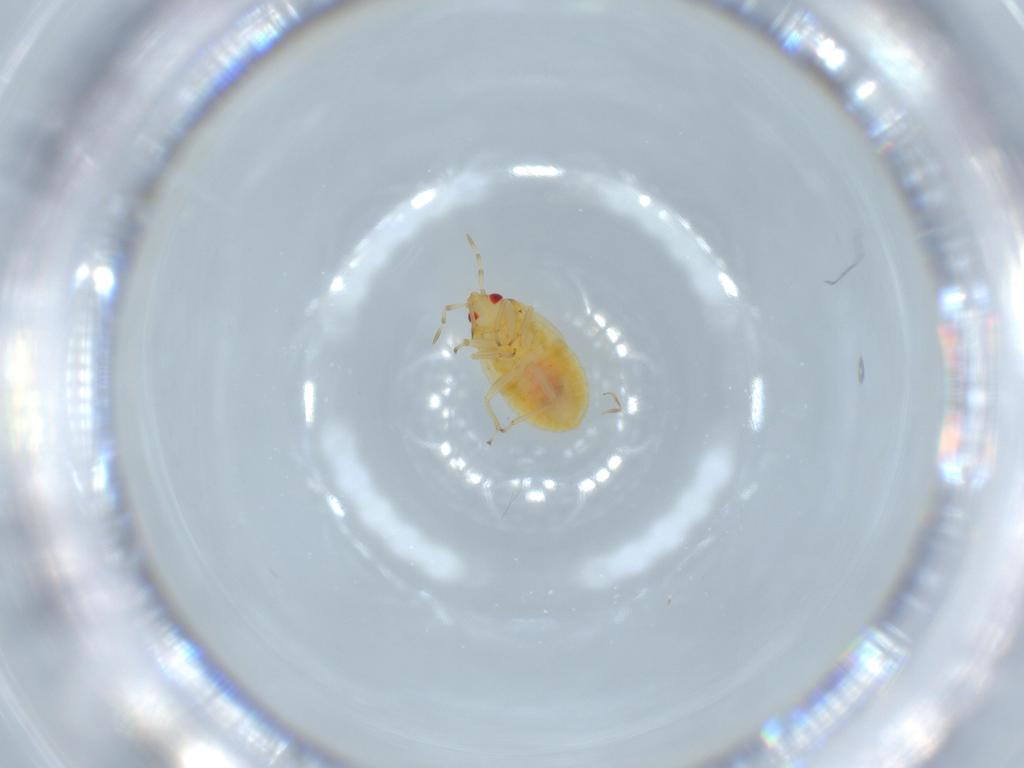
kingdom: Animalia
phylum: Arthropoda
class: Insecta
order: Hemiptera
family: Anthocoridae
